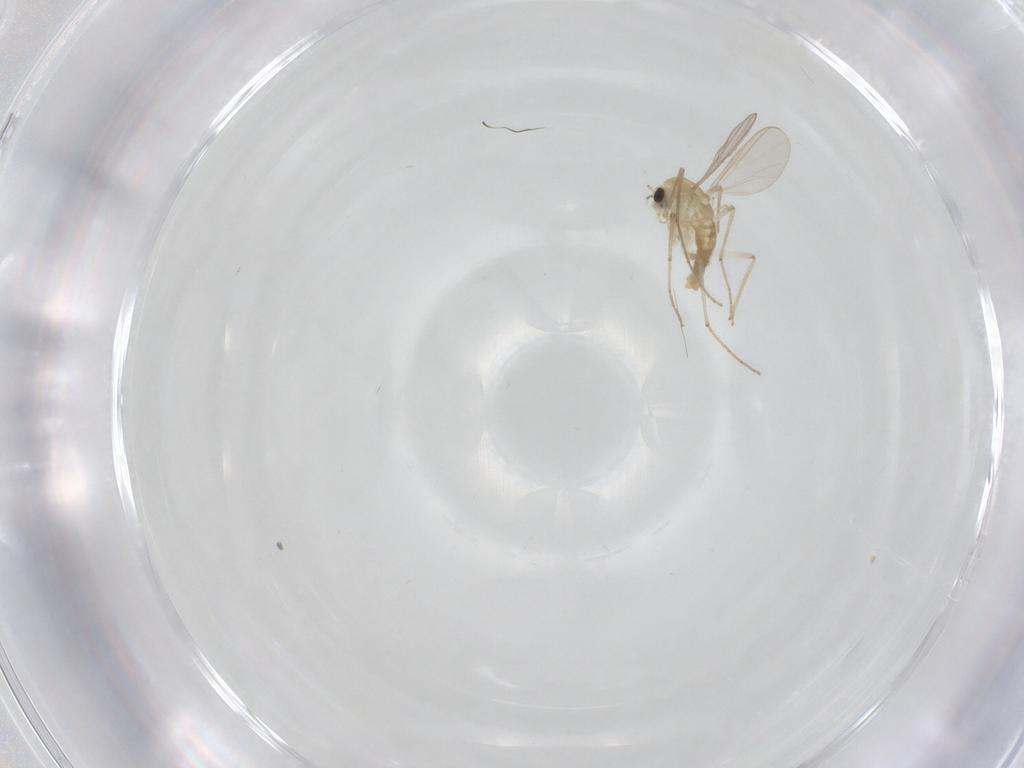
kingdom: Animalia
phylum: Arthropoda
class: Insecta
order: Diptera
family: Chironomidae
